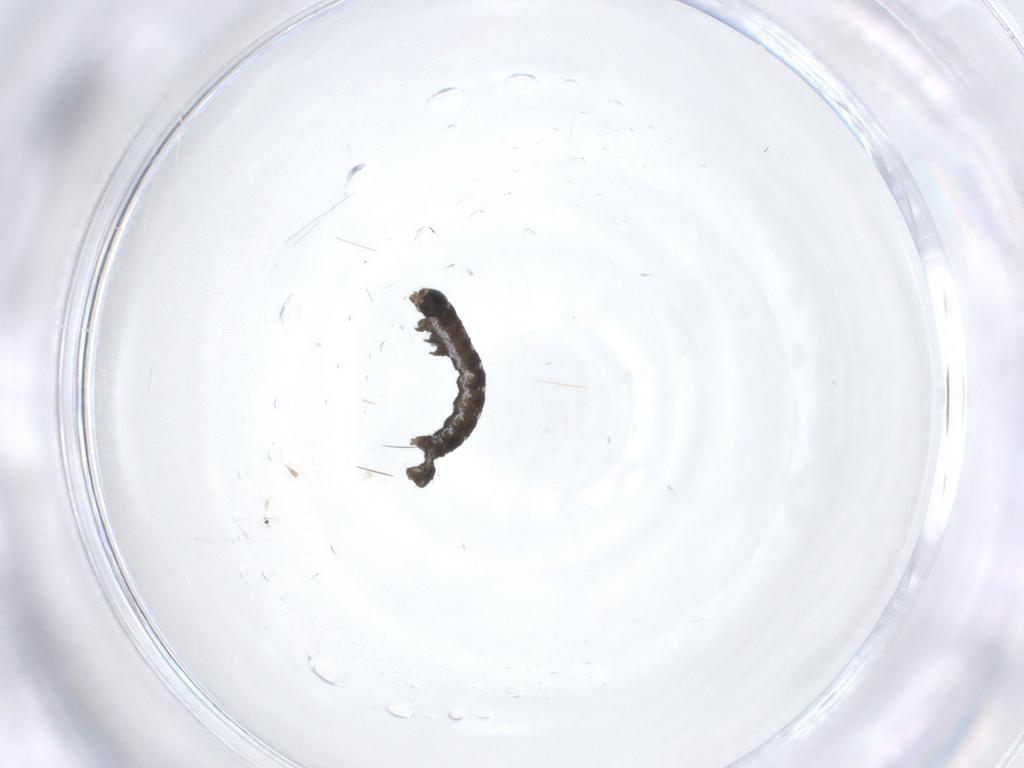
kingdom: Animalia
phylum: Arthropoda
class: Insecta
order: Lepidoptera
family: Geometridae
